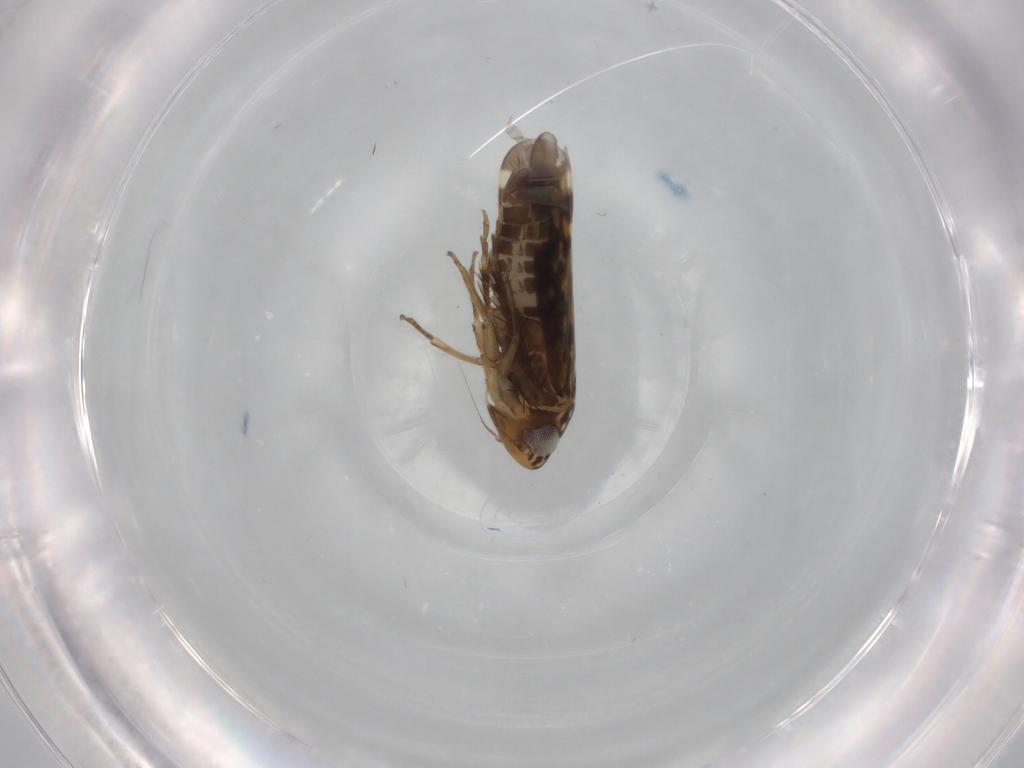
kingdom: Animalia
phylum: Arthropoda
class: Insecta
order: Hemiptera
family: Cicadellidae
